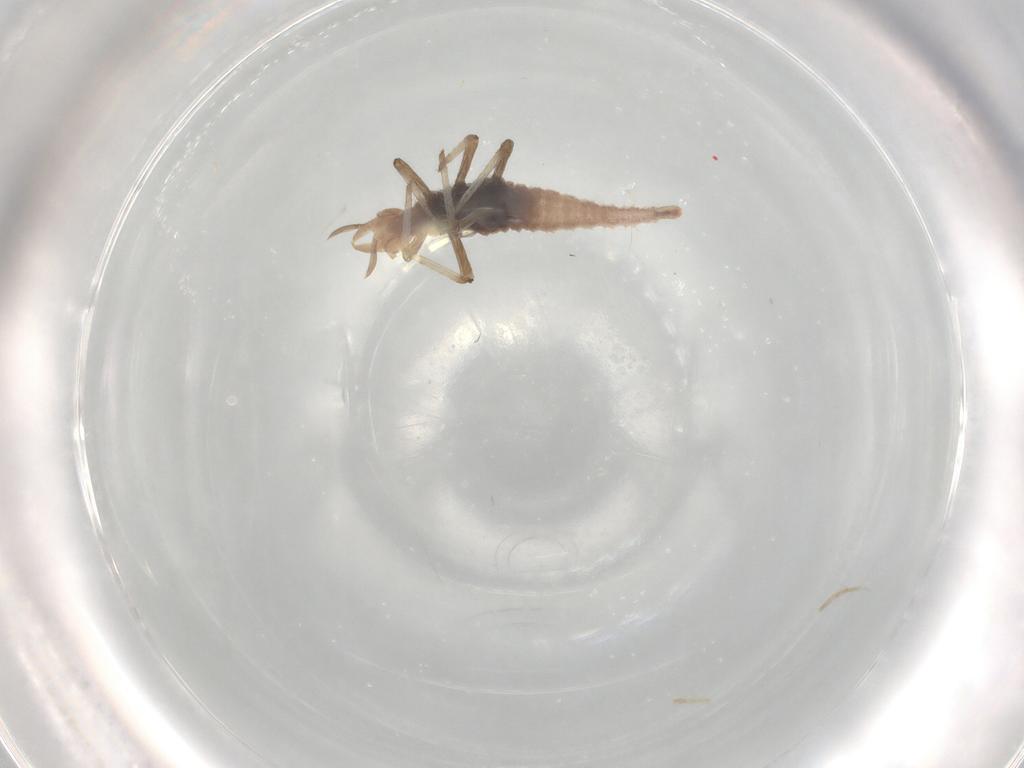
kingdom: Animalia
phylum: Arthropoda
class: Insecta
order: Neuroptera
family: Hemerobiidae
